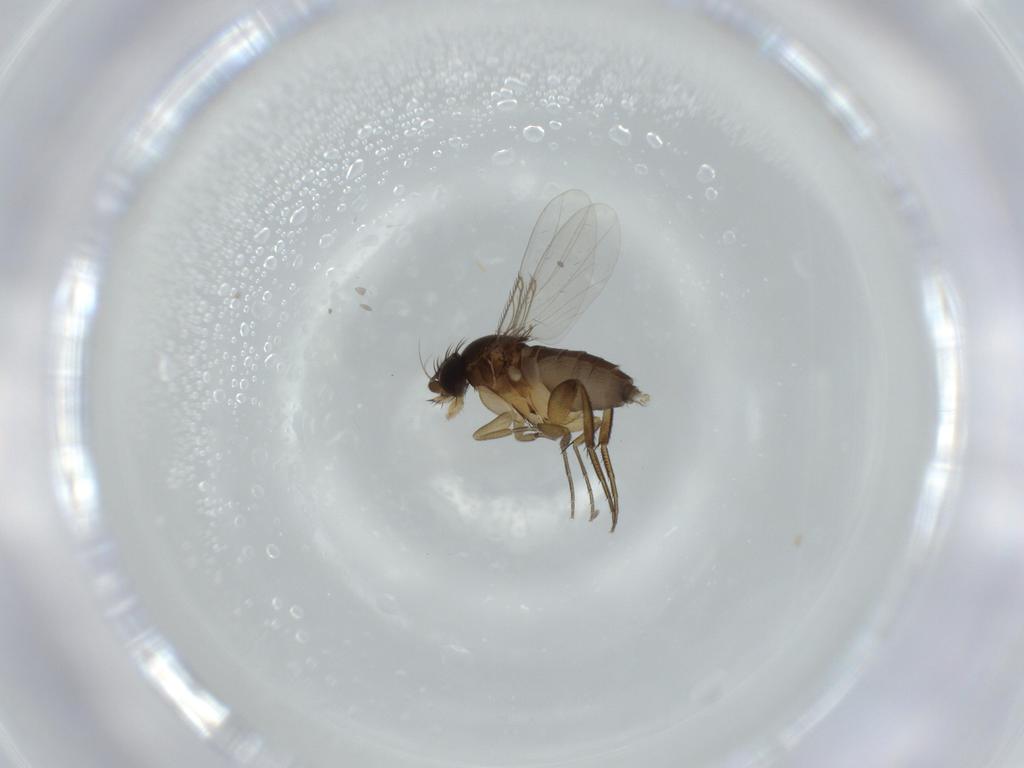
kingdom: Animalia
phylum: Arthropoda
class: Insecta
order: Diptera
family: Phoridae
